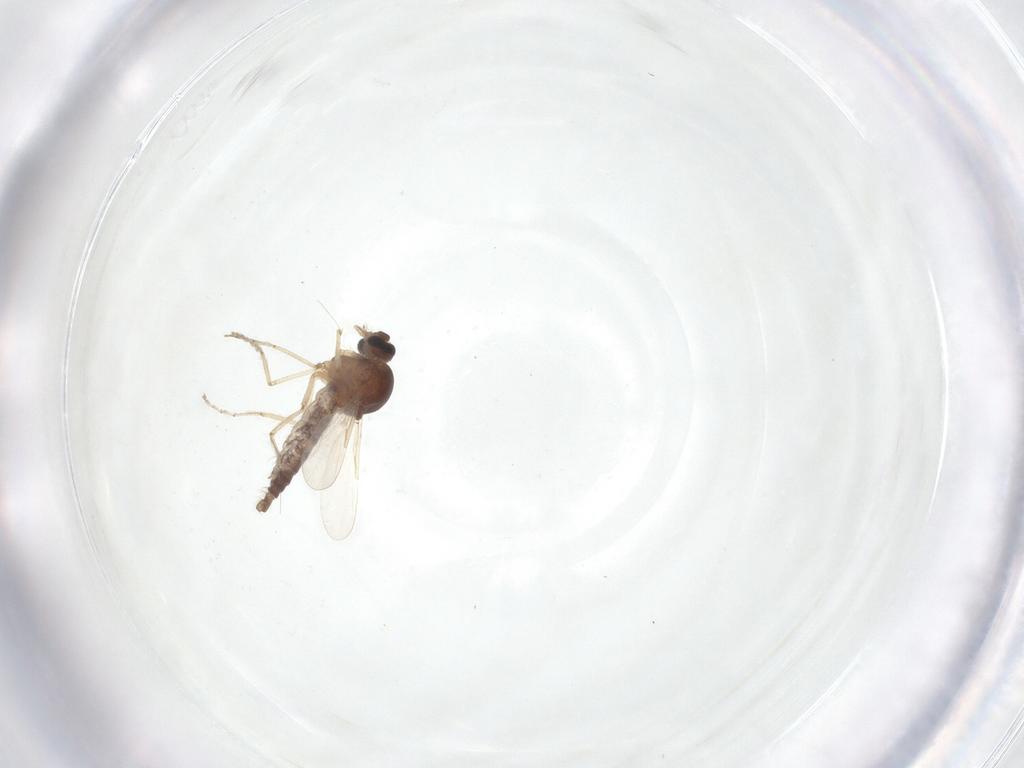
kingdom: Animalia
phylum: Arthropoda
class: Insecta
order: Diptera
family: Ceratopogonidae
